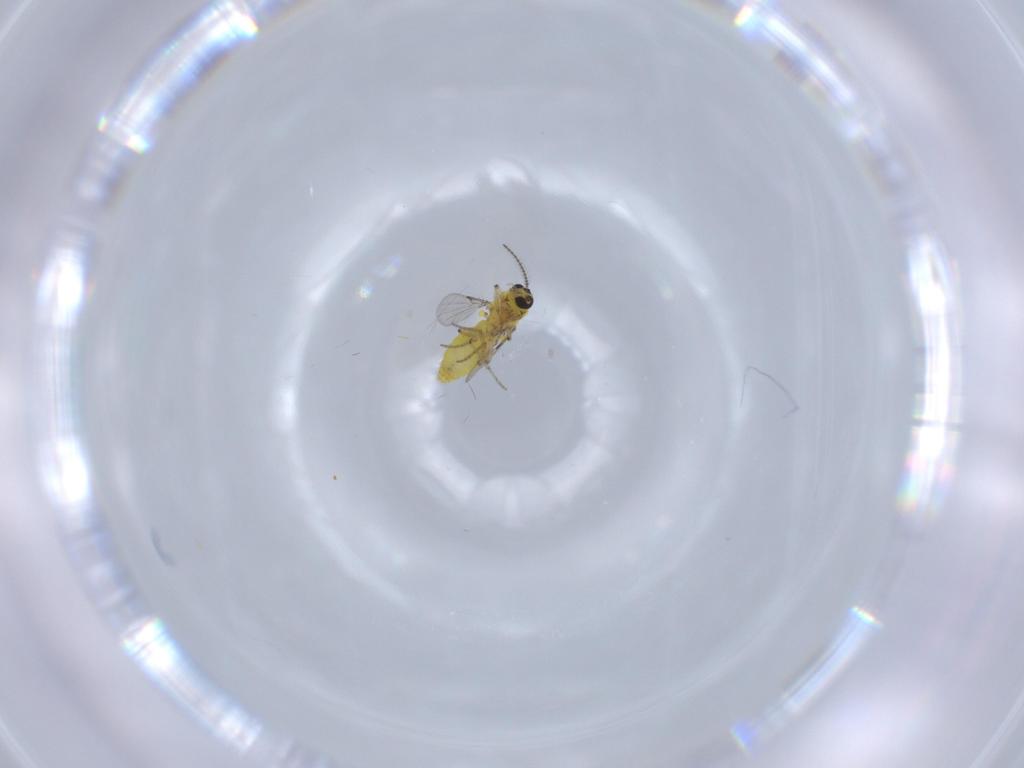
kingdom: Animalia
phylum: Arthropoda
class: Insecta
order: Diptera
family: Ceratopogonidae
